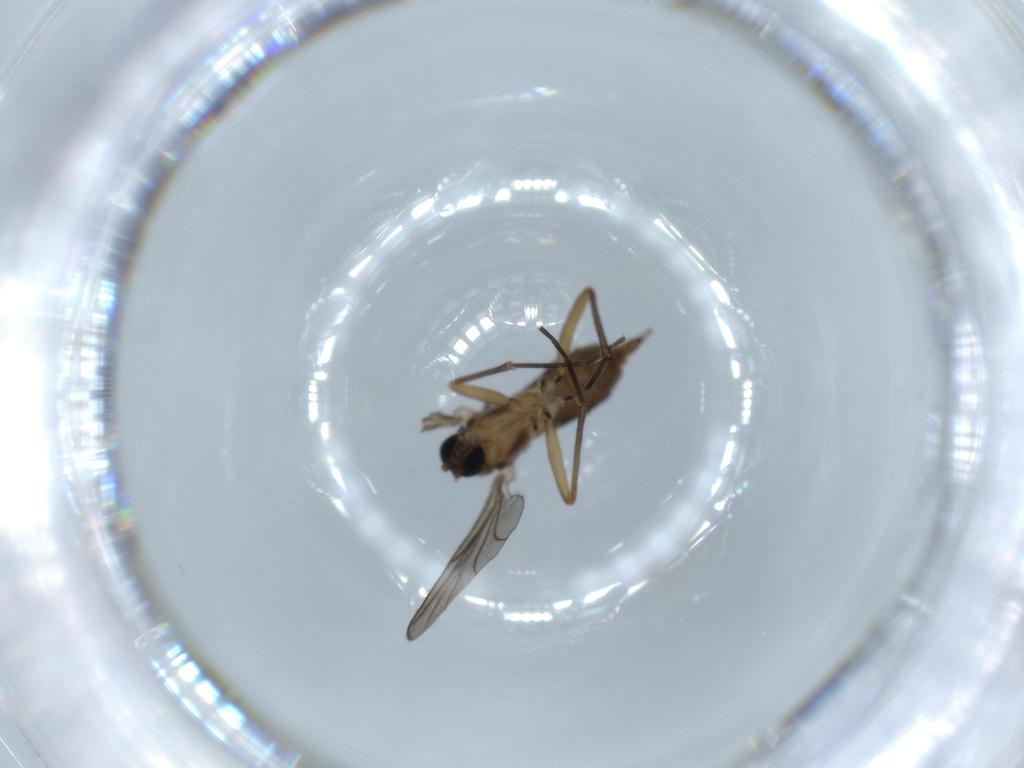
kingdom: Animalia
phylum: Arthropoda
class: Insecta
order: Diptera
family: Sciaridae
